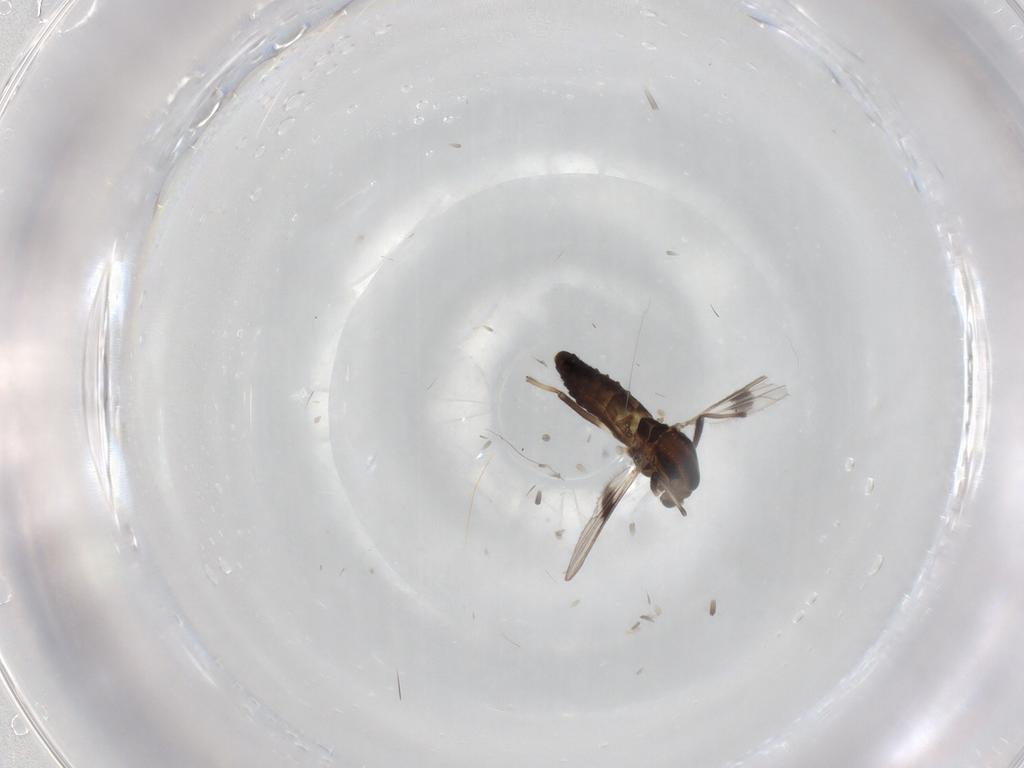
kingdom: Animalia
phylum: Arthropoda
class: Insecta
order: Diptera
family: Chironomidae
